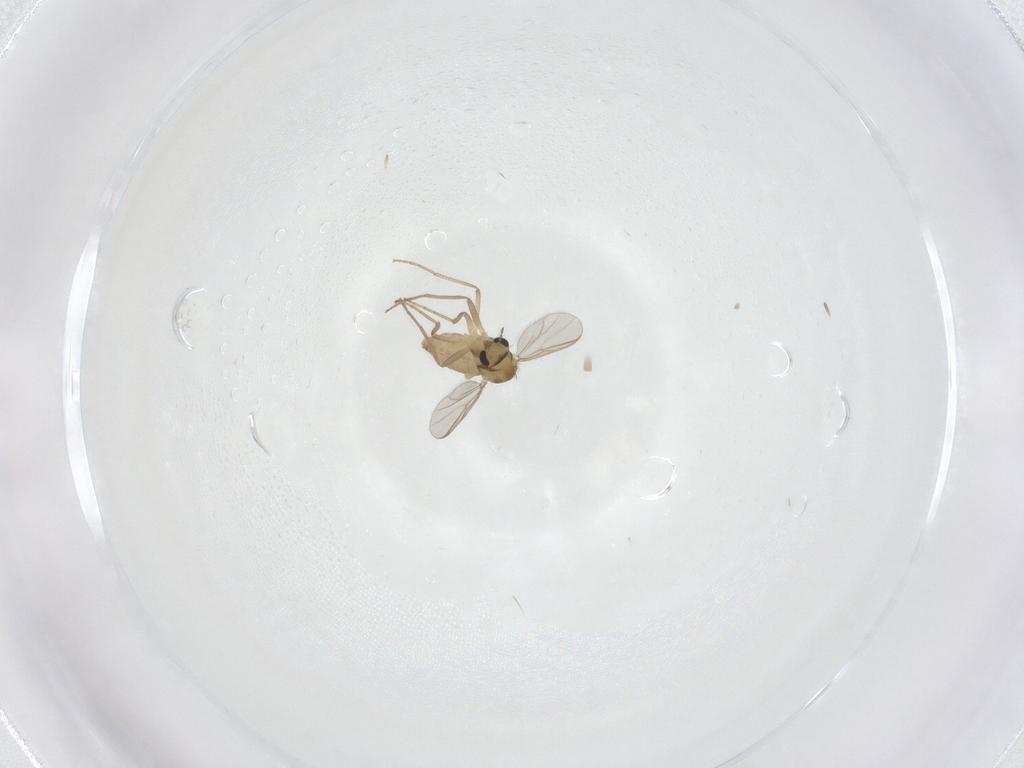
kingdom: Animalia
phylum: Arthropoda
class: Insecta
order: Diptera
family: Chironomidae
